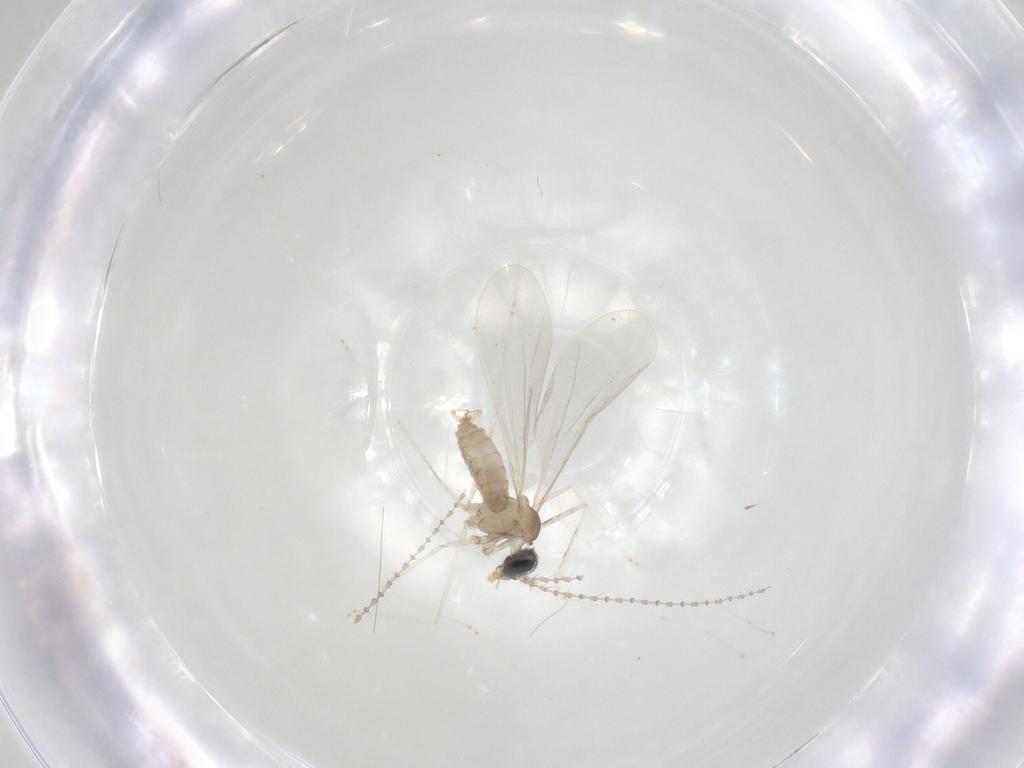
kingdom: Animalia
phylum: Arthropoda
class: Insecta
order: Diptera
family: Cecidomyiidae
